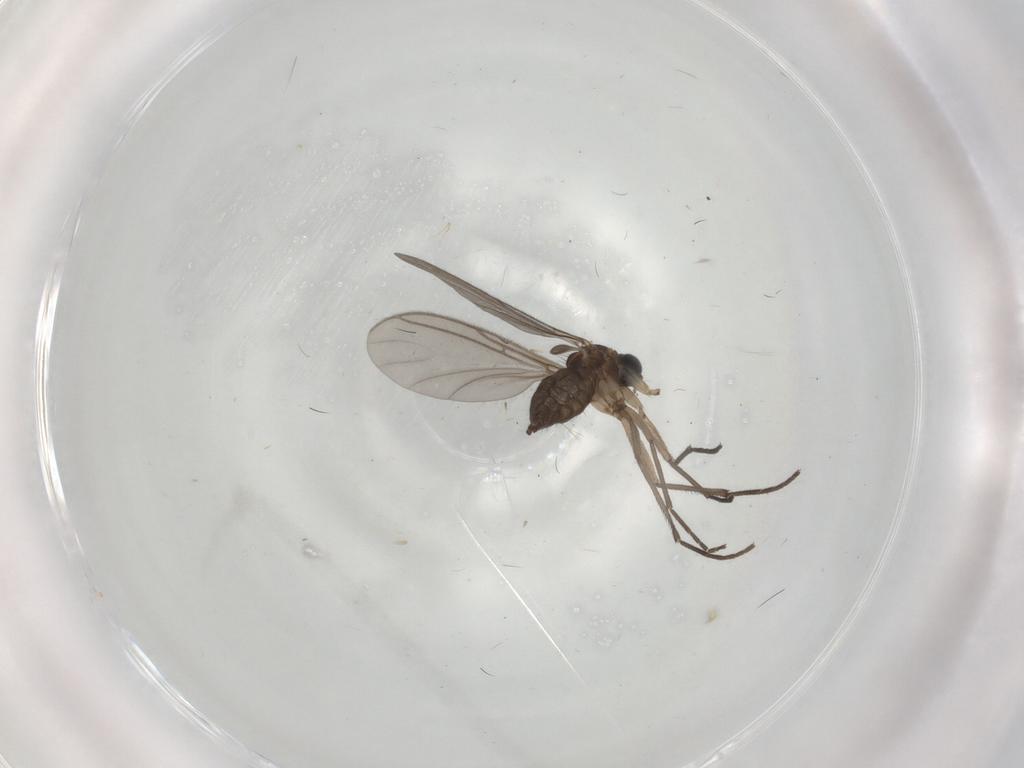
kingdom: Animalia
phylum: Arthropoda
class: Insecta
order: Diptera
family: Sciaridae
